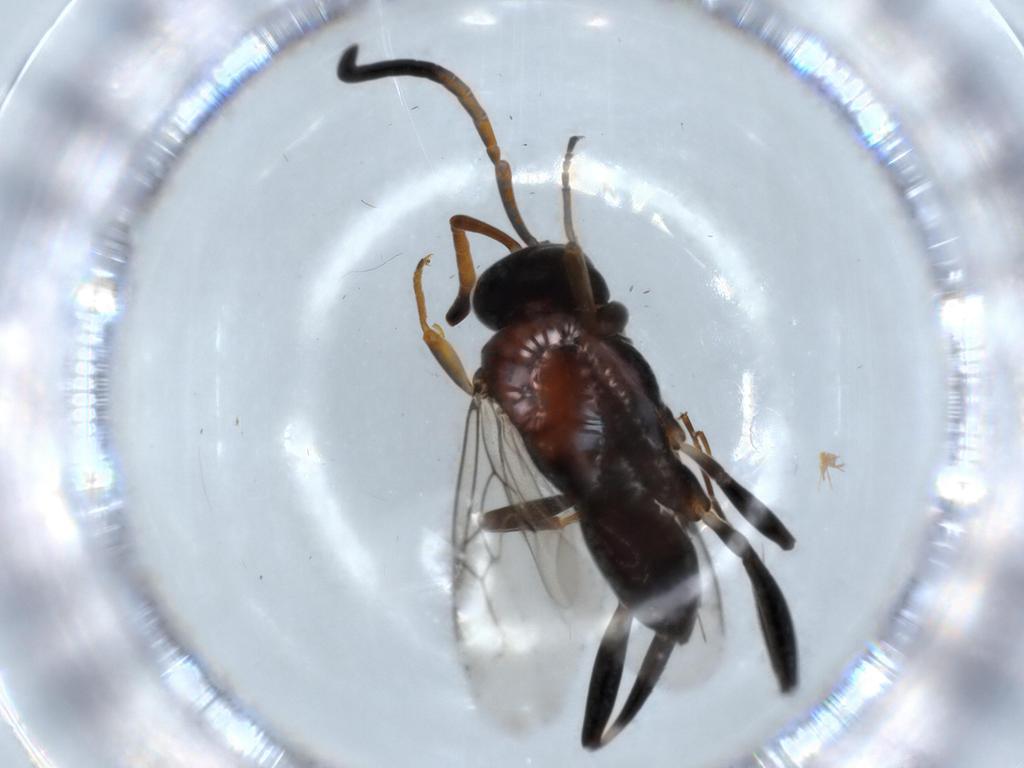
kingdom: Animalia
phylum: Arthropoda
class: Insecta
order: Hymenoptera
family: Evaniidae
